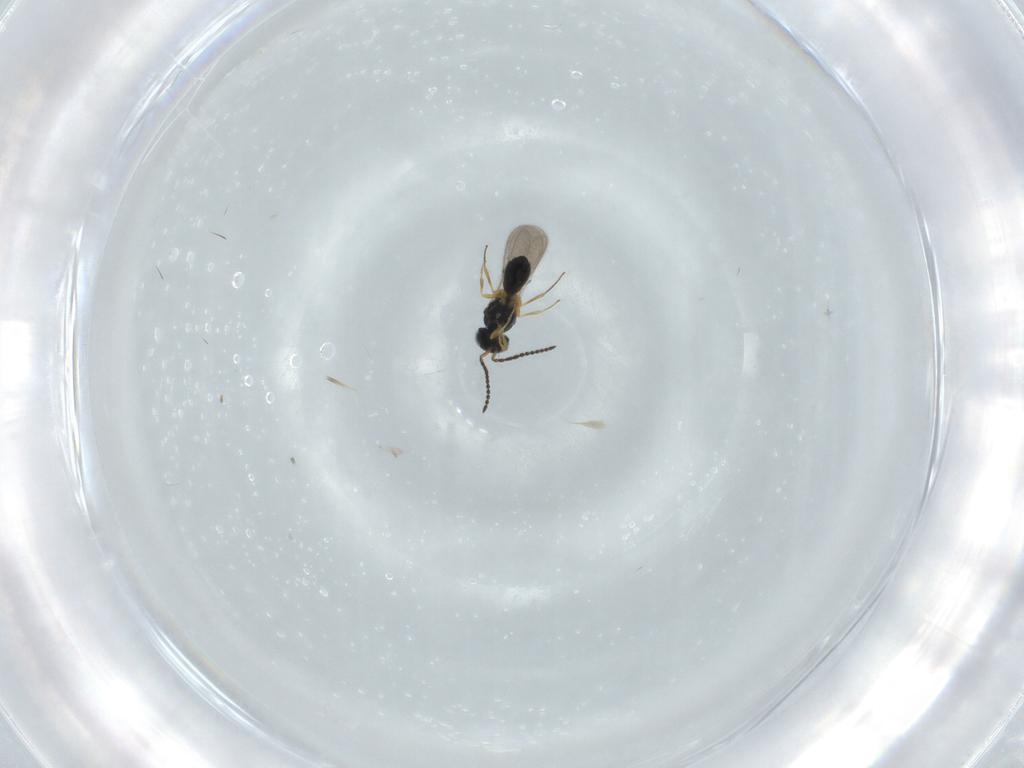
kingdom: Animalia
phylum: Arthropoda
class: Insecta
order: Hymenoptera
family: Scelionidae
